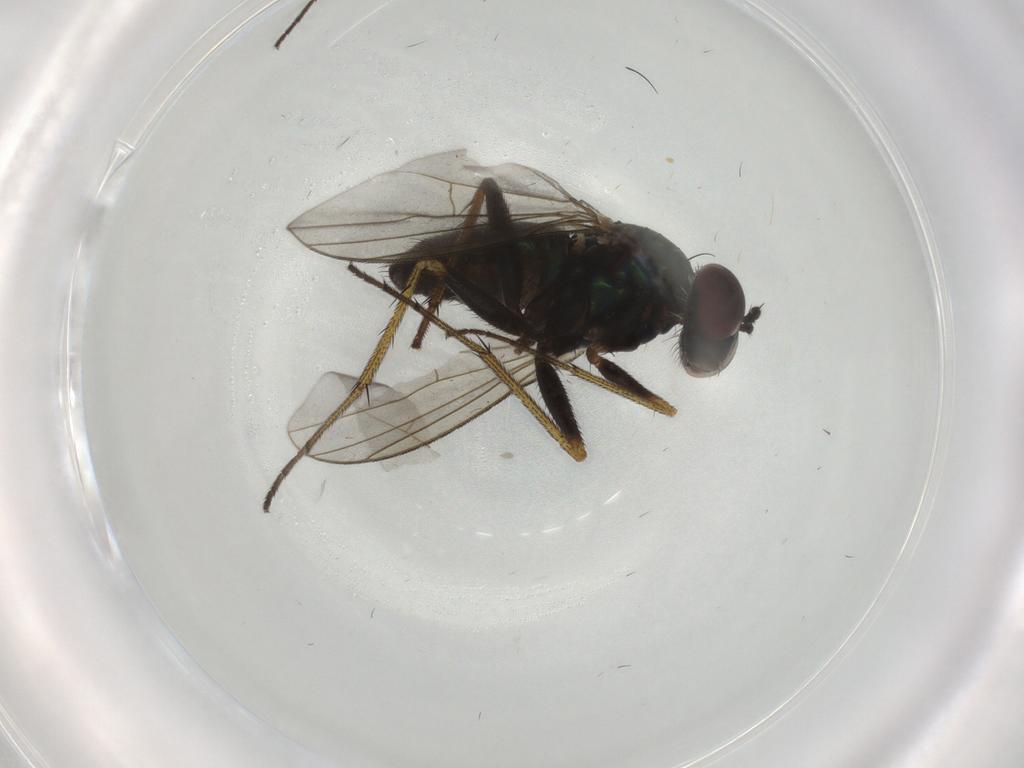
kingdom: Animalia
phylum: Arthropoda
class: Insecta
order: Diptera
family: Dolichopodidae
